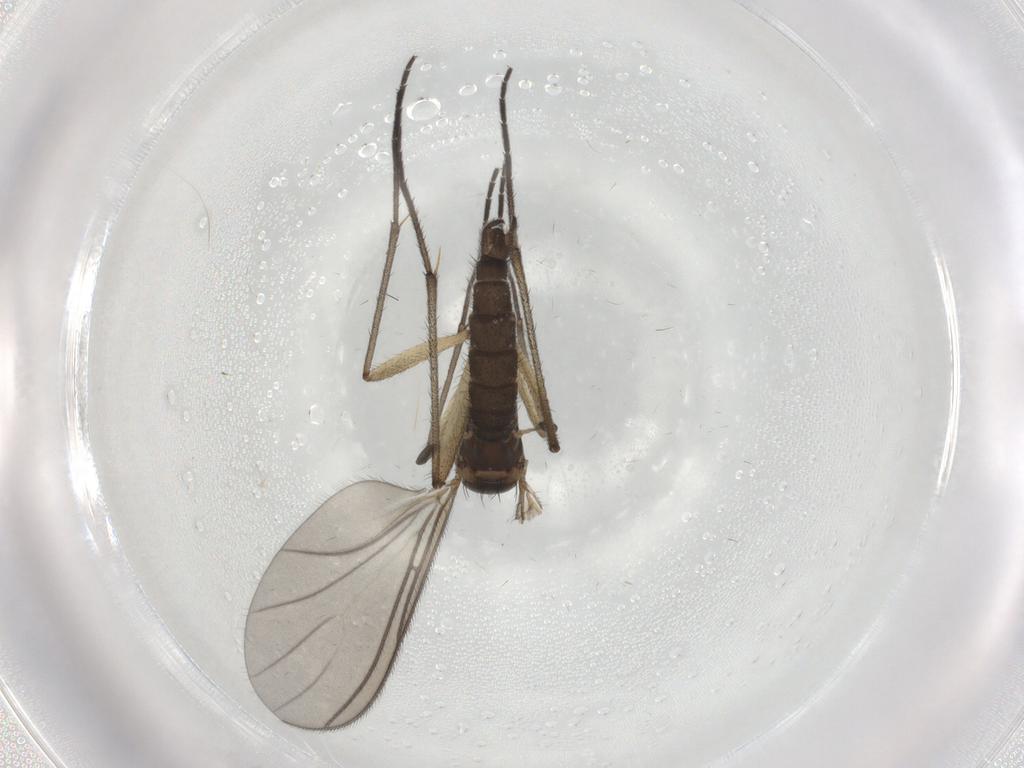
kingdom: Animalia
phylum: Arthropoda
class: Insecta
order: Diptera
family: Sciaridae
